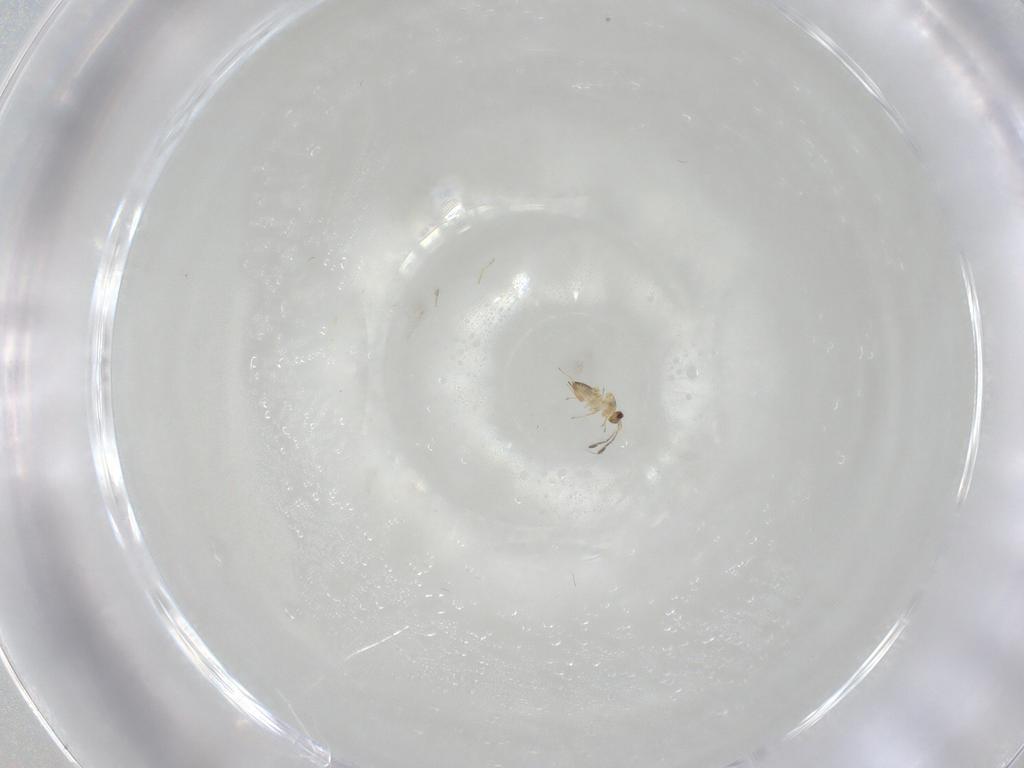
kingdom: Animalia
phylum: Arthropoda
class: Insecta
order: Hymenoptera
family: Mymaridae
